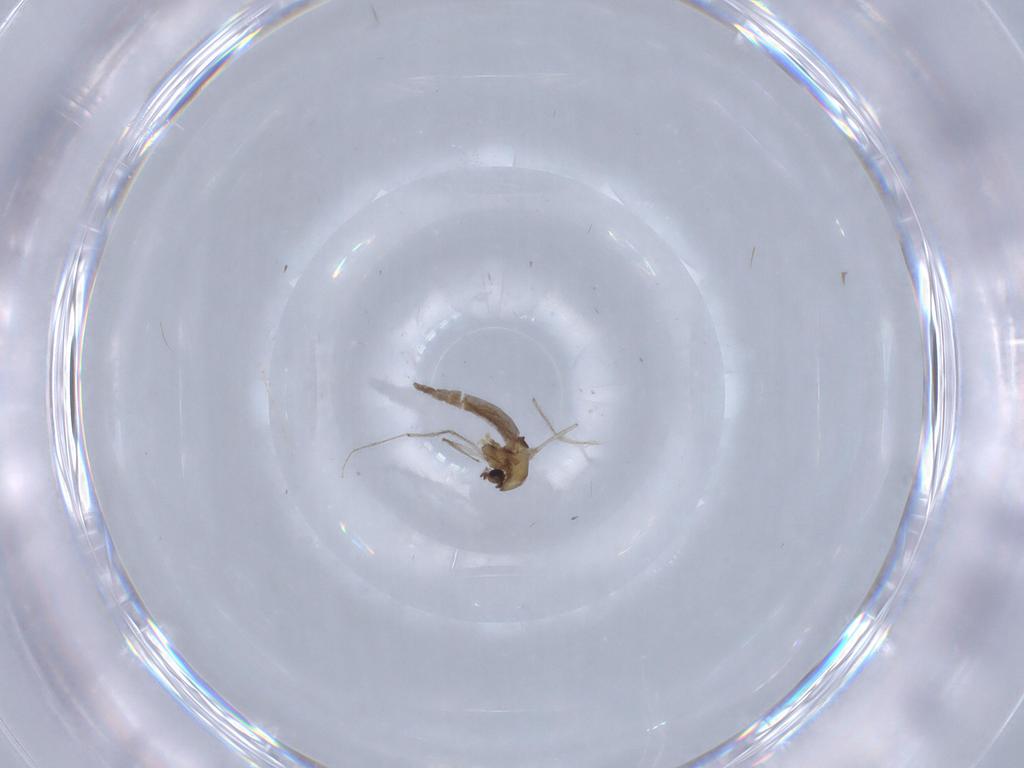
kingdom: Animalia
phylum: Arthropoda
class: Insecta
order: Diptera
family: Chironomidae
